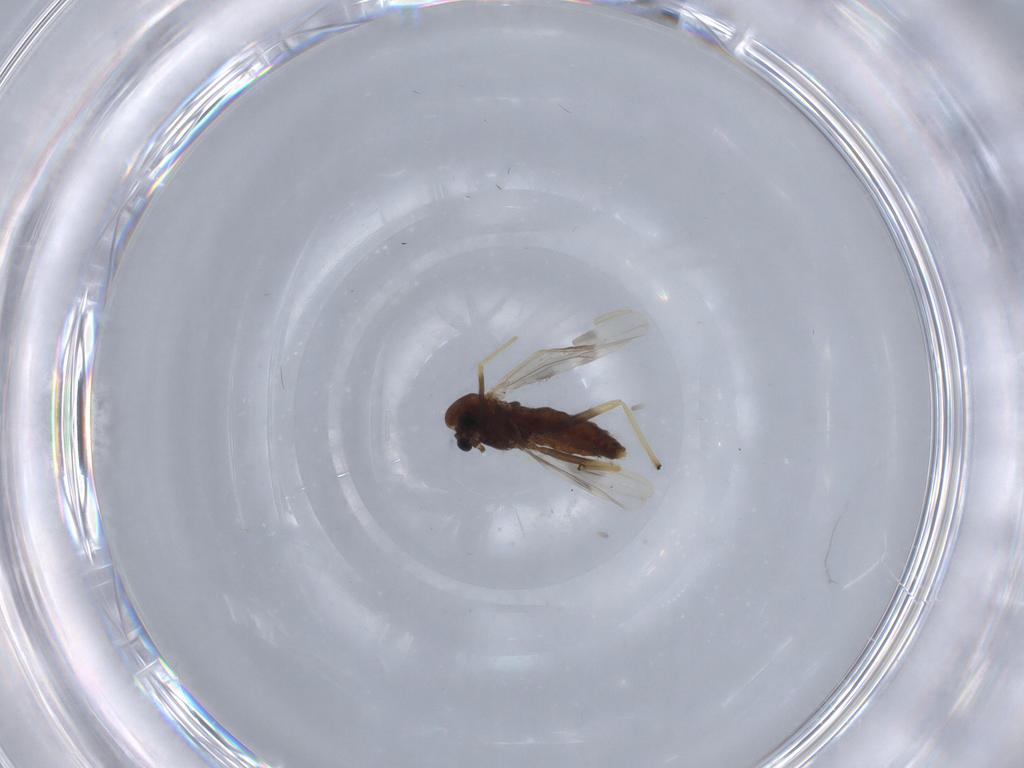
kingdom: Animalia
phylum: Arthropoda
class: Insecta
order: Diptera
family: Chironomidae
